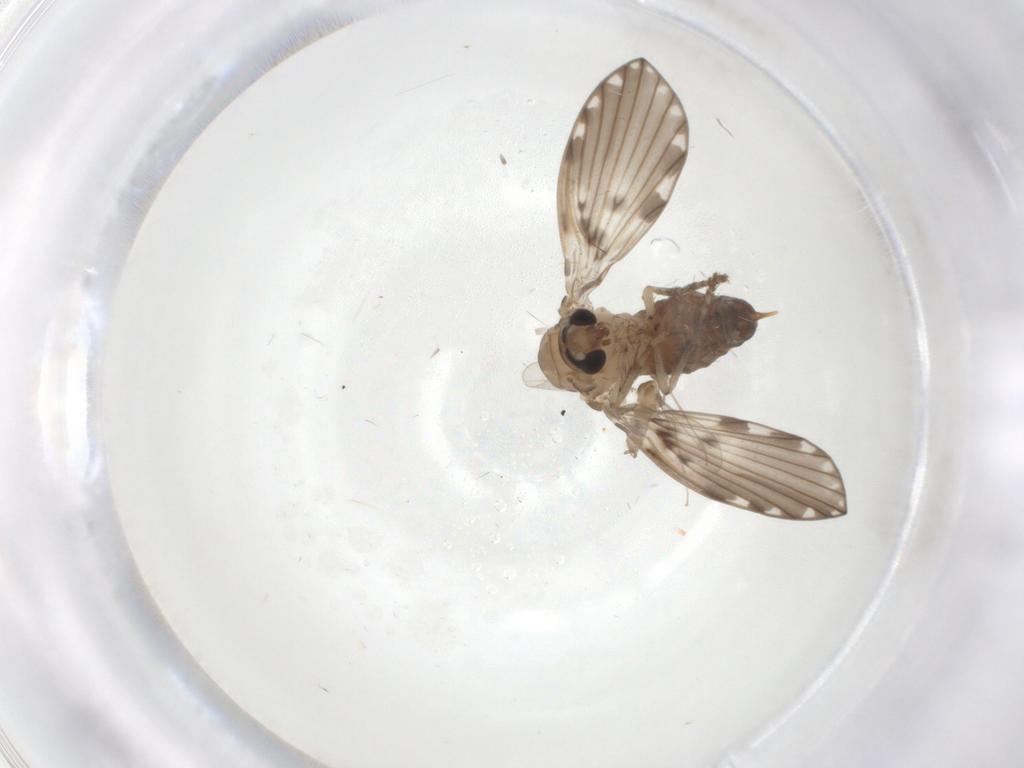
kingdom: Animalia
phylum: Arthropoda
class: Insecta
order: Diptera
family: Psychodidae
